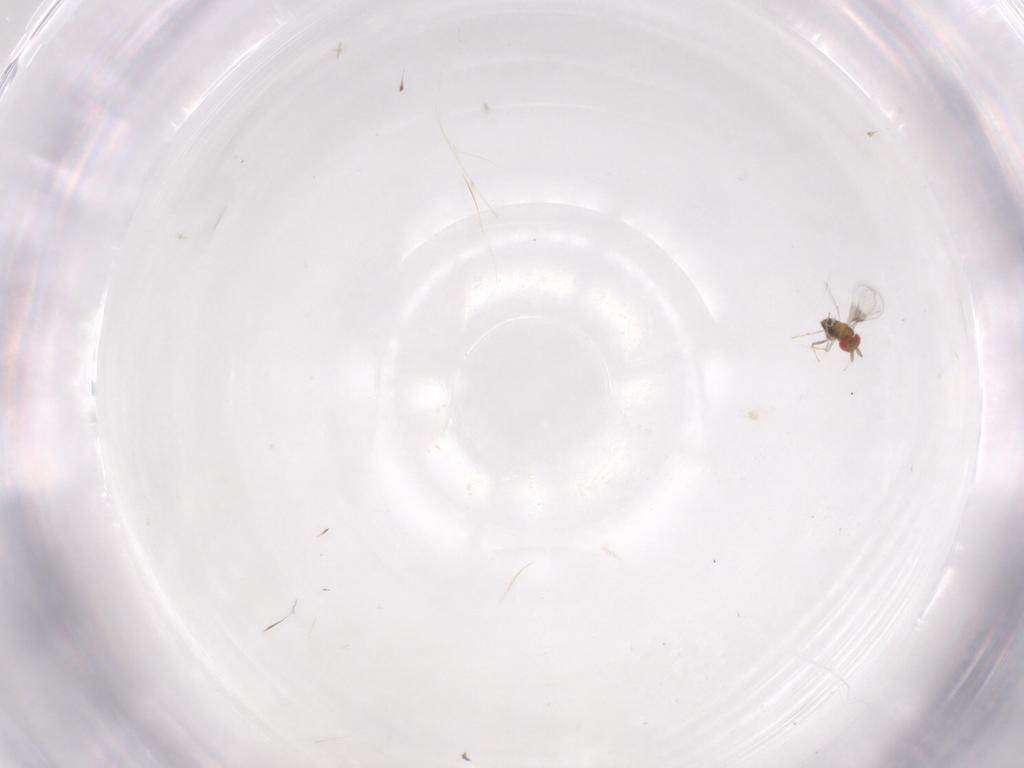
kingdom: Animalia
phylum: Arthropoda
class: Insecta
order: Hymenoptera
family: Trichogrammatidae
